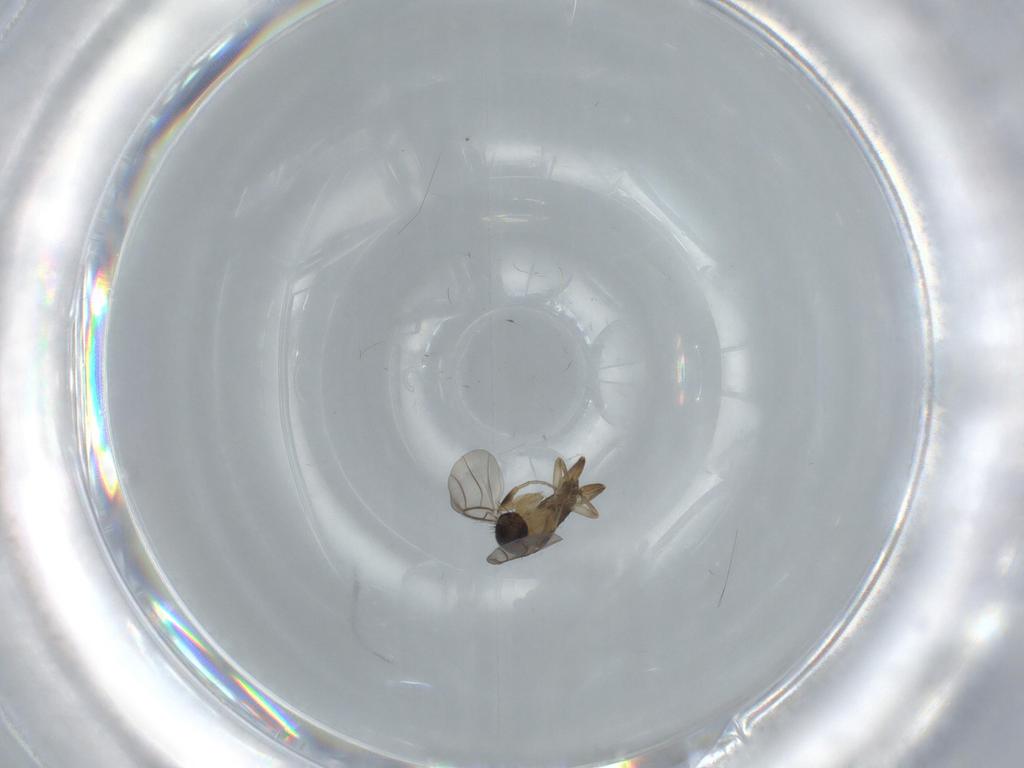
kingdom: Animalia
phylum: Arthropoda
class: Insecta
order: Diptera
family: Phoridae
